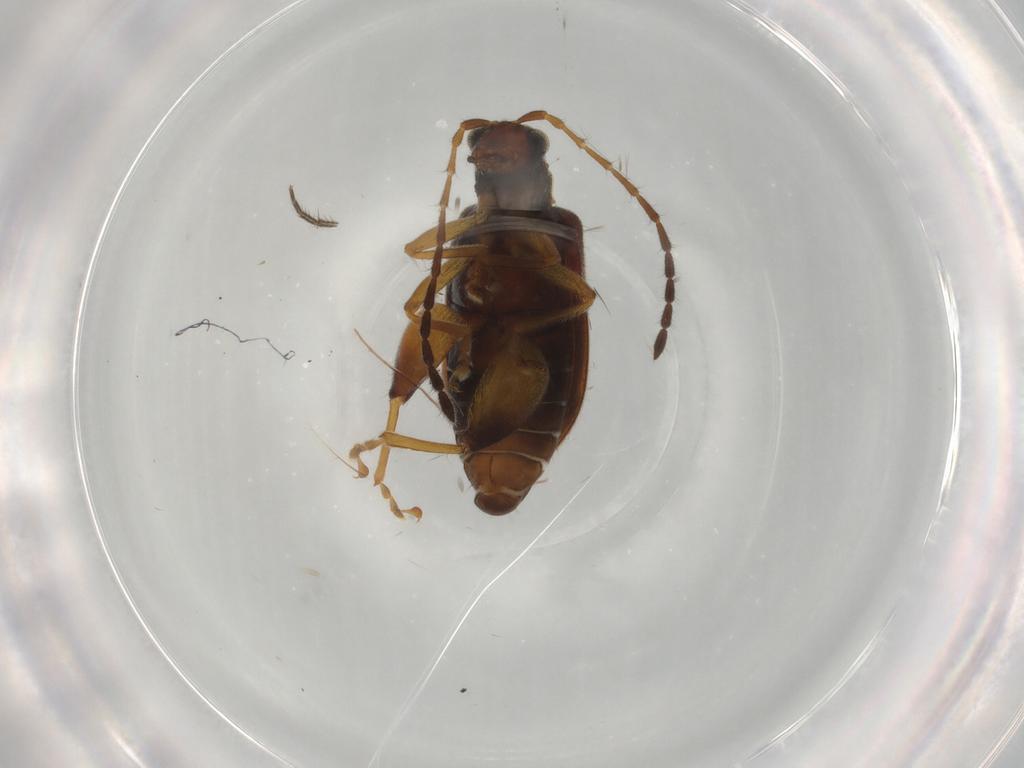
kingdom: Animalia
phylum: Arthropoda
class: Insecta
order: Coleoptera
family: Chrysomelidae
